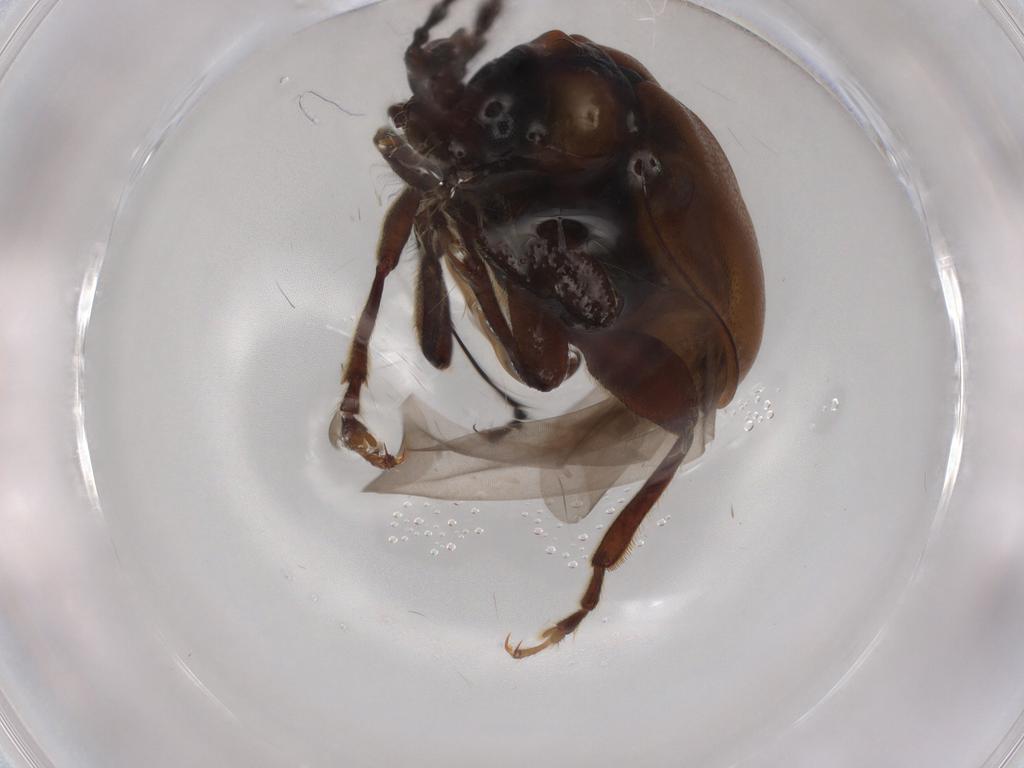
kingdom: Animalia
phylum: Arthropoda
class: Insecta
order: Coleoptera
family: Chrysomelidae
